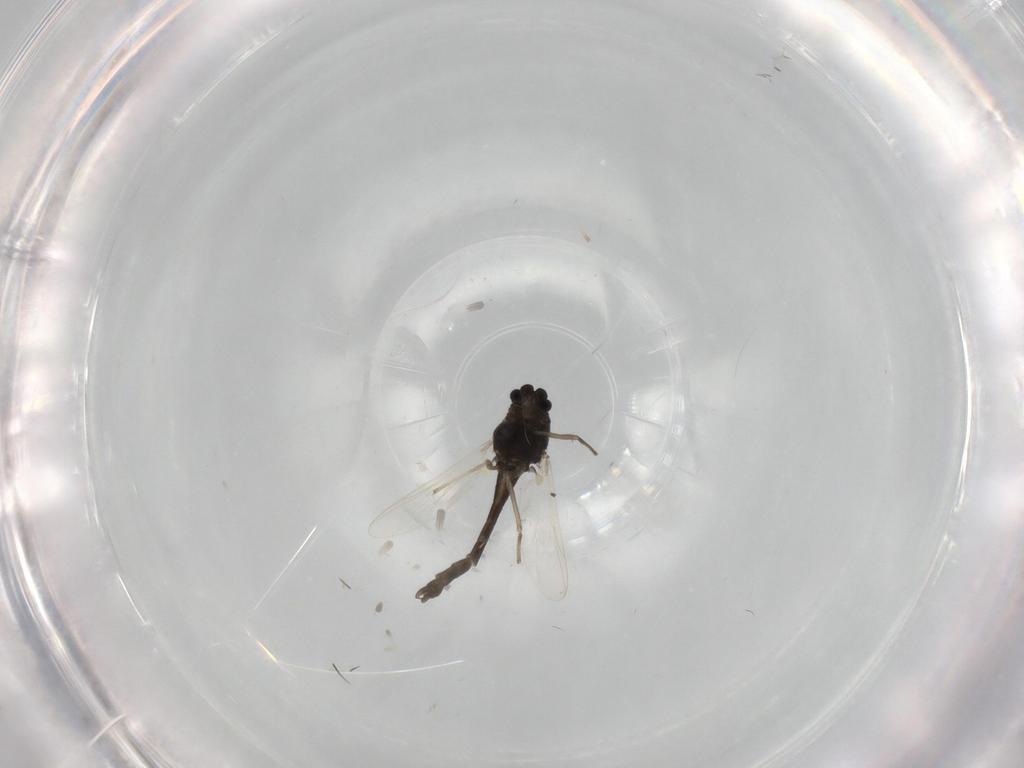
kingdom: Animalia
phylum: Arthropoda
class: Insecta
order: Diptera
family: Chironomidae
